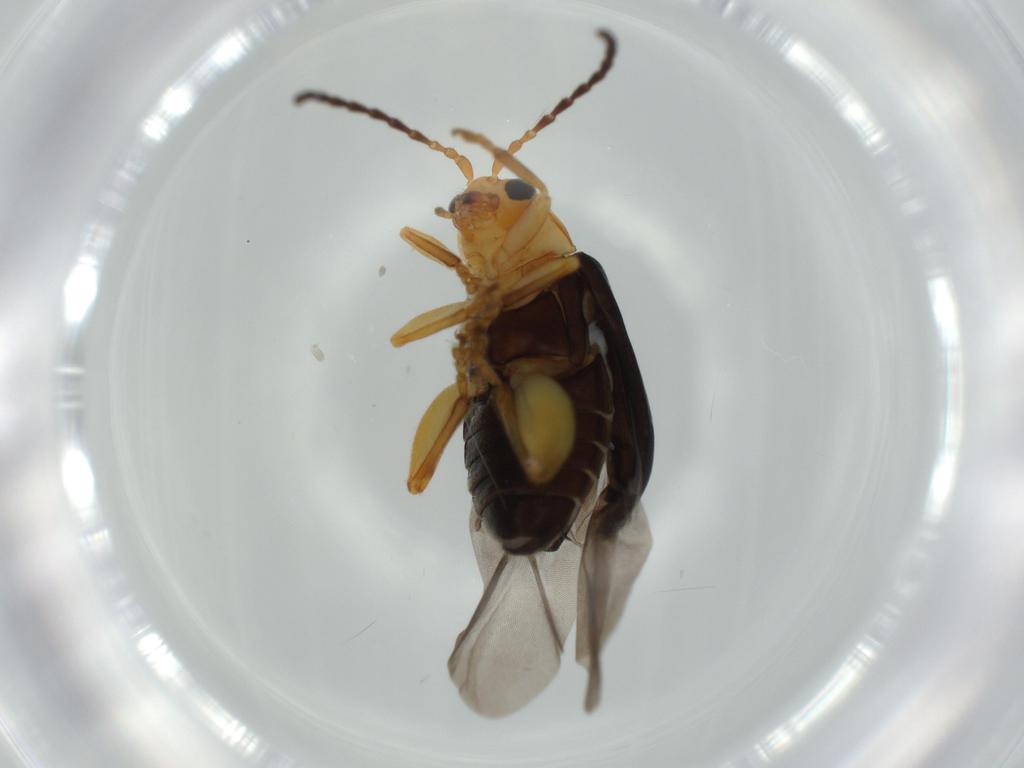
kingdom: Animalia
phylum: Arthropoda
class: Insecta
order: Coleoptera
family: Chrysomelidae
